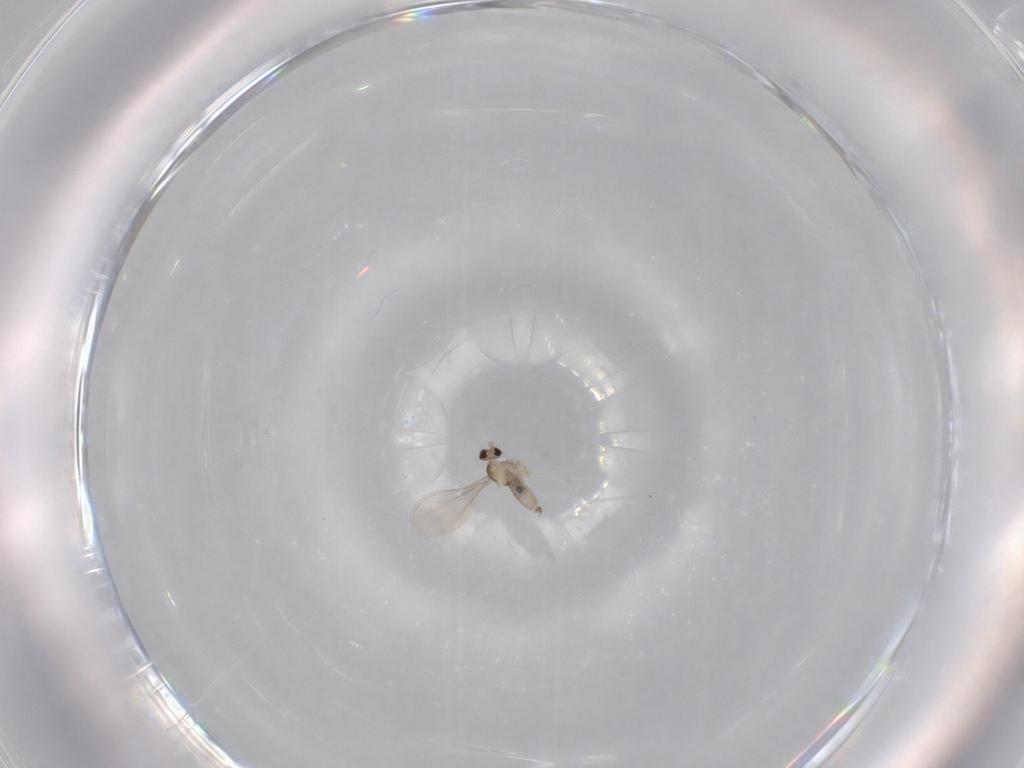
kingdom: Animalia
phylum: Arthropoda
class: Insecta
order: Diptera
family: Cecidomyiidae
